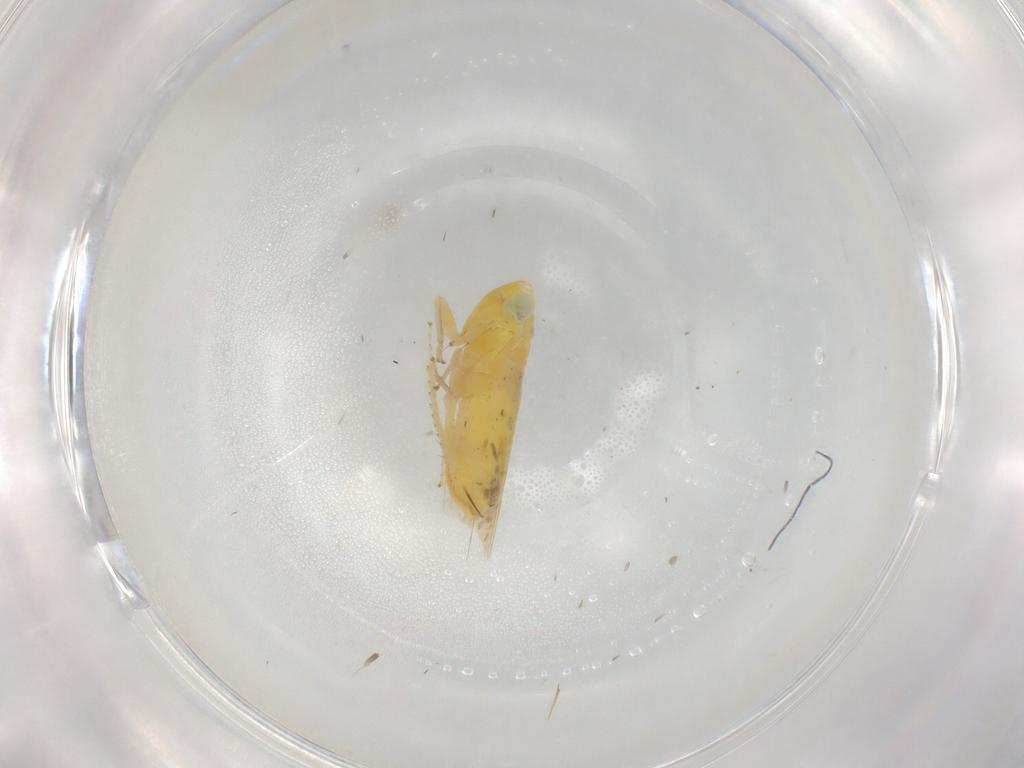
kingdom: Animalia
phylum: Arthropoda
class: Insecta
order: Hemiptera
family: Cicadellidae
